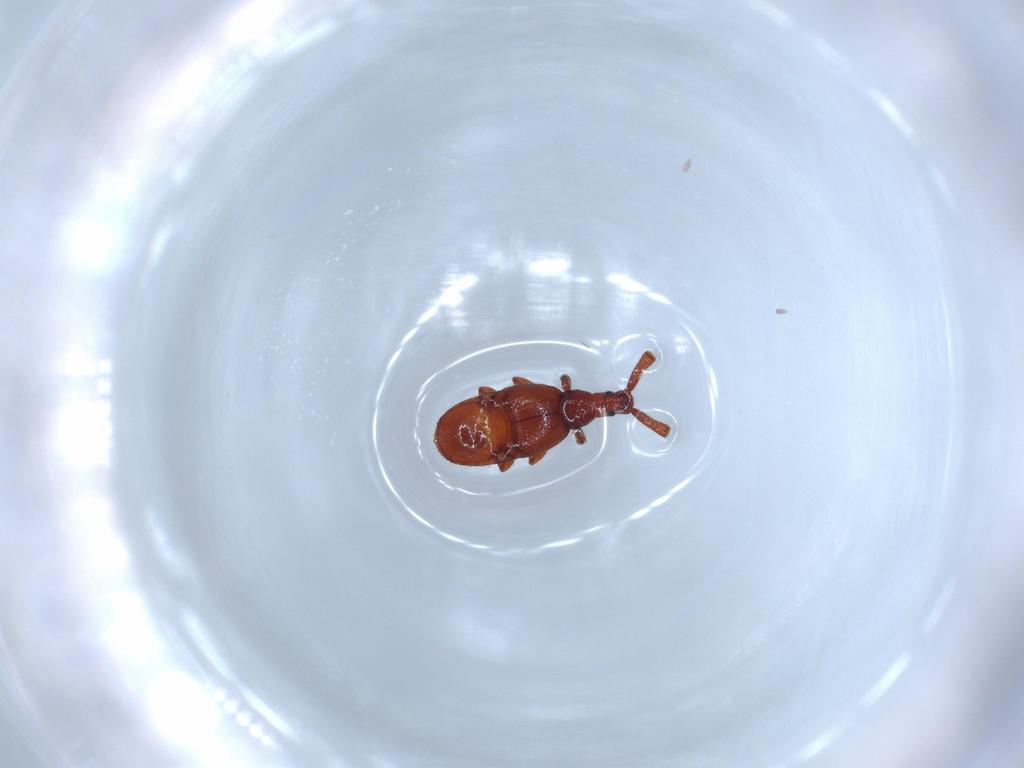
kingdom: Animalia
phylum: Arthropoda
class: Insecta
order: Coleoptera
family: Staphylinidae
